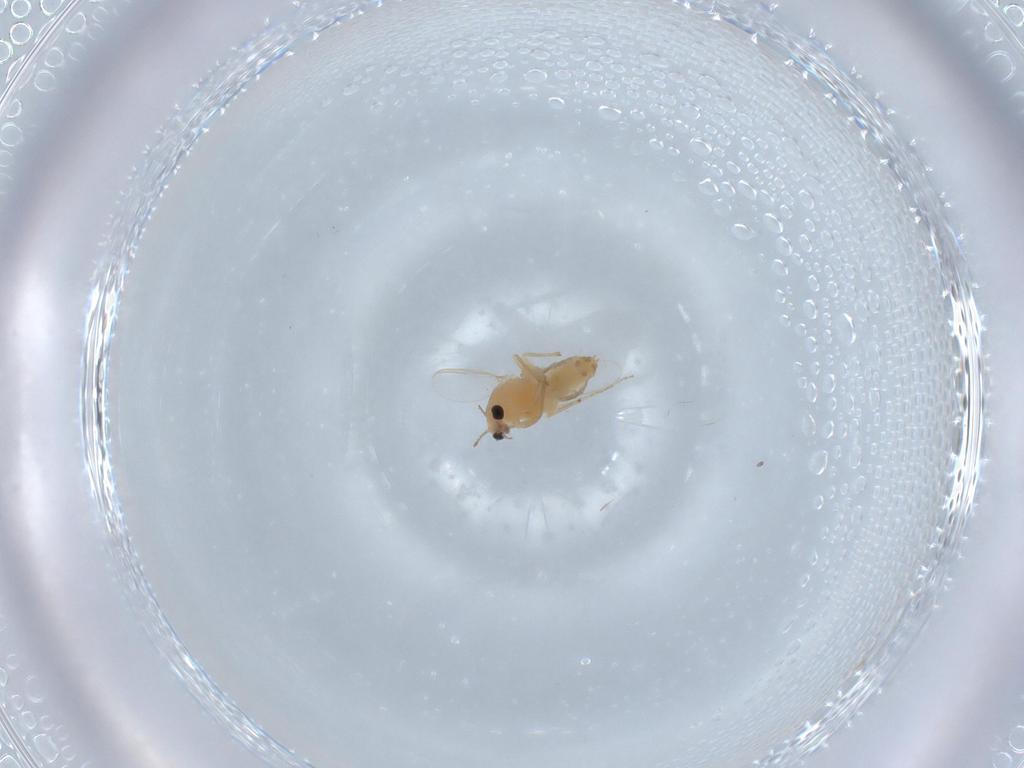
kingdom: Animalia
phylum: Arthropoda
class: Insecta
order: Diptera
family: Chironomidae
